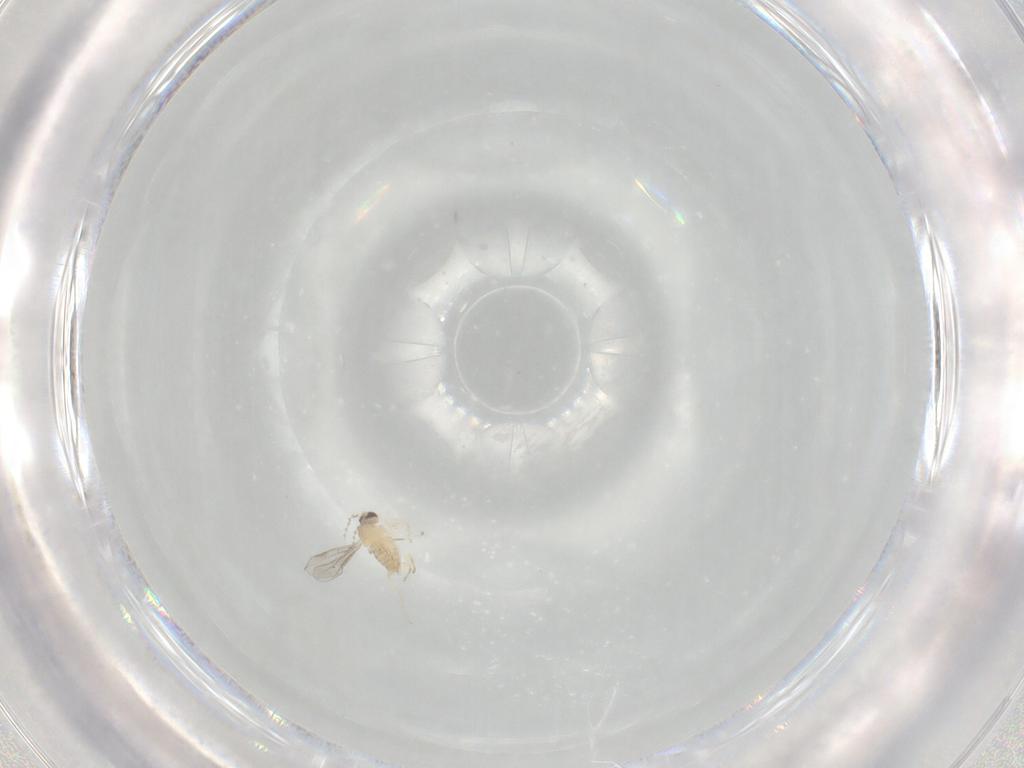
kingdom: Animalia
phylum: Arthropoda
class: Insecta
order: Diptera
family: Cecidomyiidae
